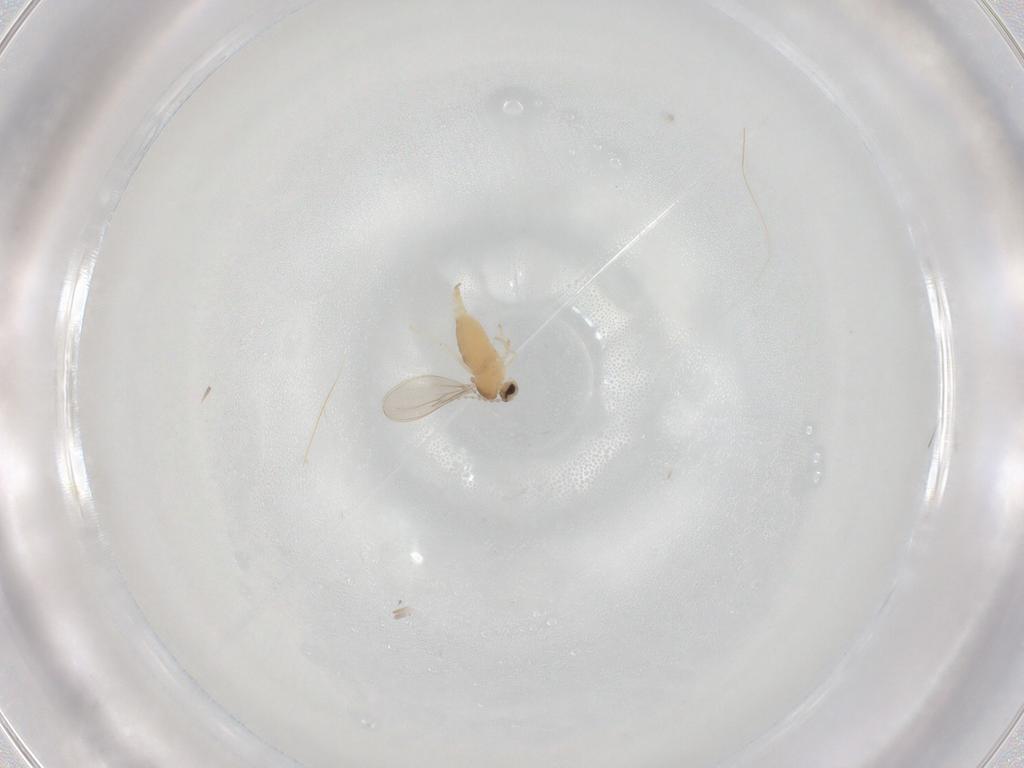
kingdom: Animalia
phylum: Arthropoda
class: Insecta
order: Diptera
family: Cecidomyiidae
